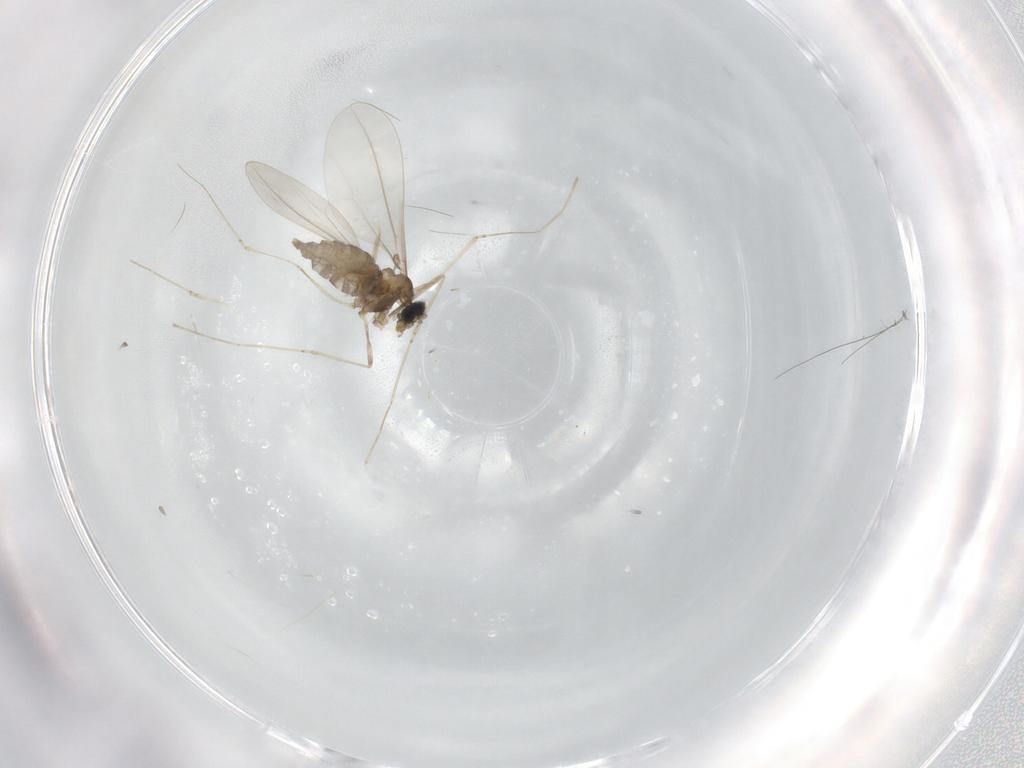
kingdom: Animalia
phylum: Arthropoda
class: Insecta
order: Diptera
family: Cecidomyiidae
